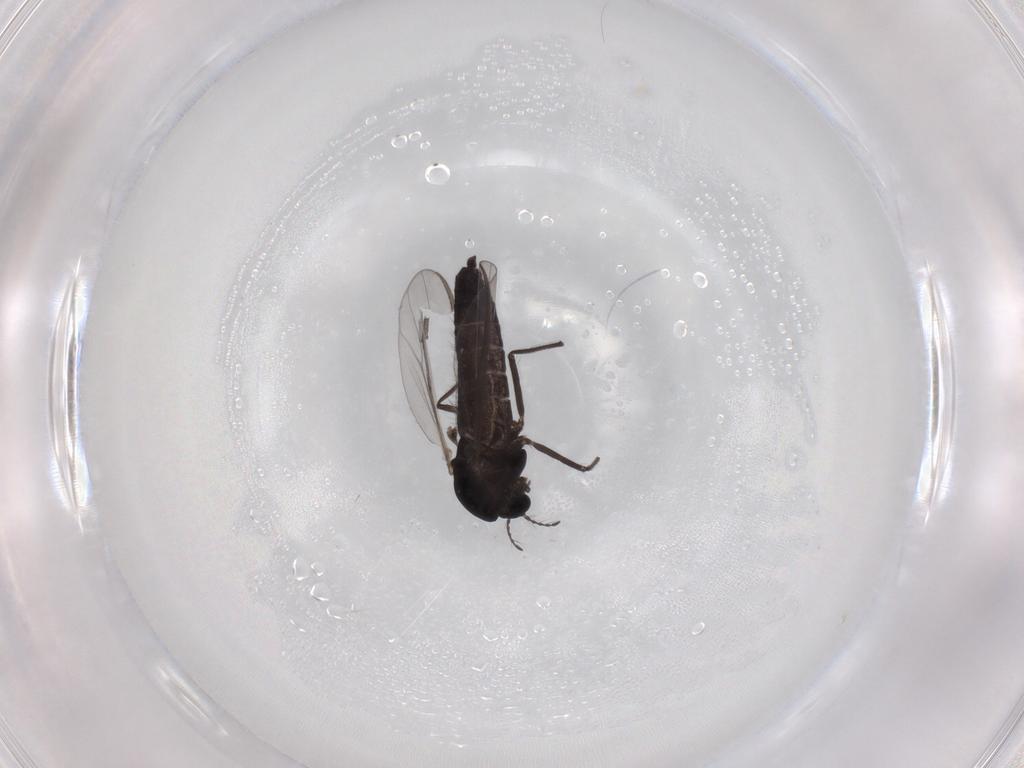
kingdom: Animalia
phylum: Arthropoda
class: Insecta
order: Diptera
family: Chironomidae
